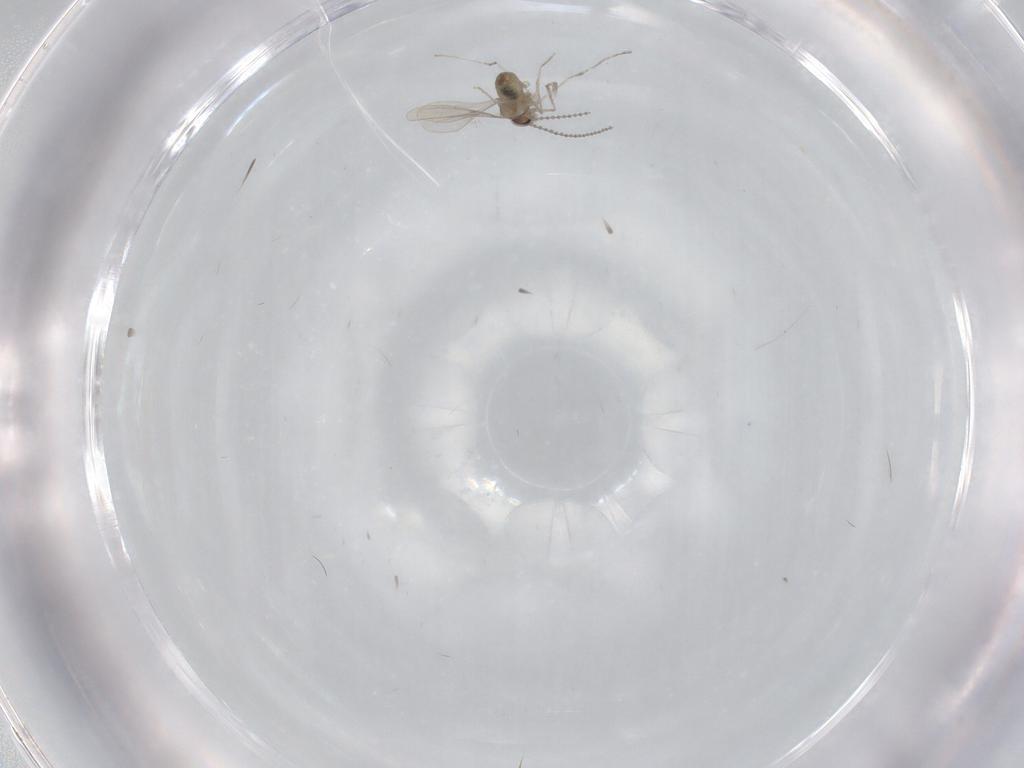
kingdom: Animalia
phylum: Arthropoda
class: Insecta
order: Diptera
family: Cecidomyiidae
